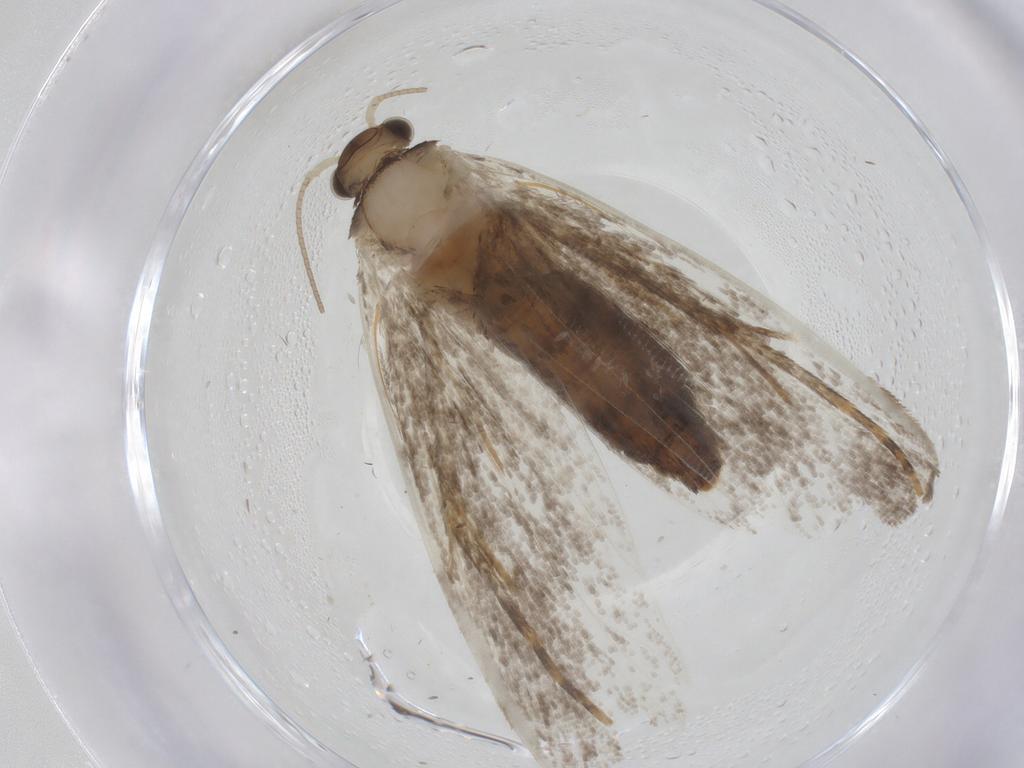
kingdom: Animalia
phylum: Arthropoda
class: Insecta
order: Lepidoptera
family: Dryadaulidae
